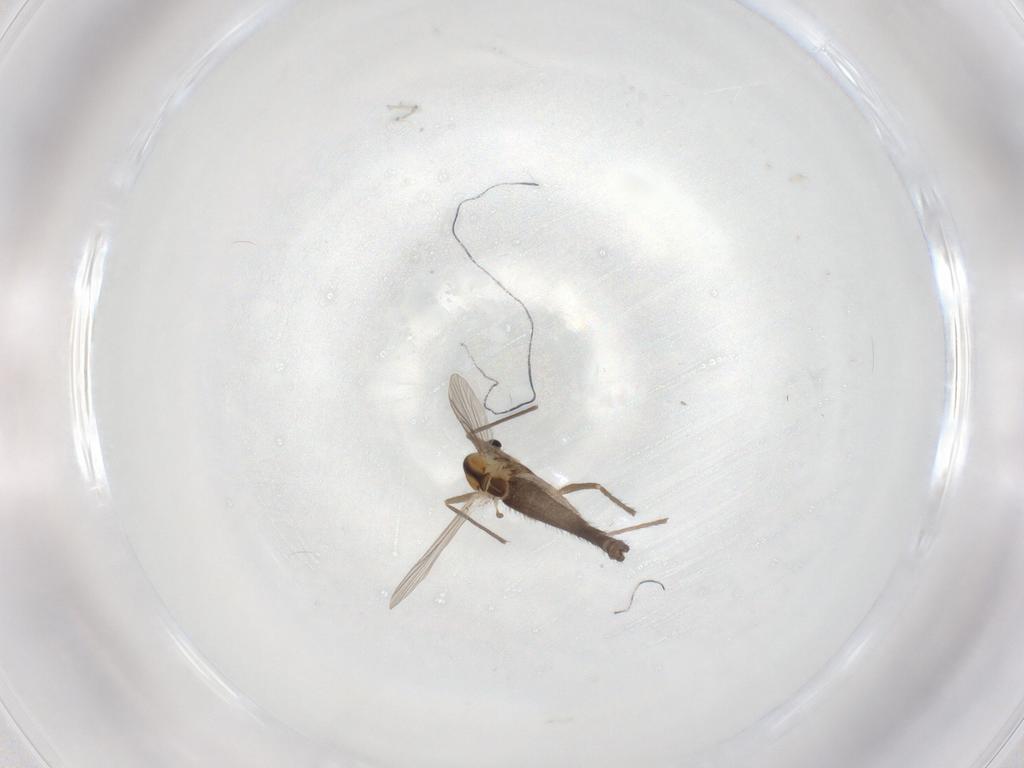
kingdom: Animalia
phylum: Arthropoda
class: Insecta
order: Diptera
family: Chironomidae
